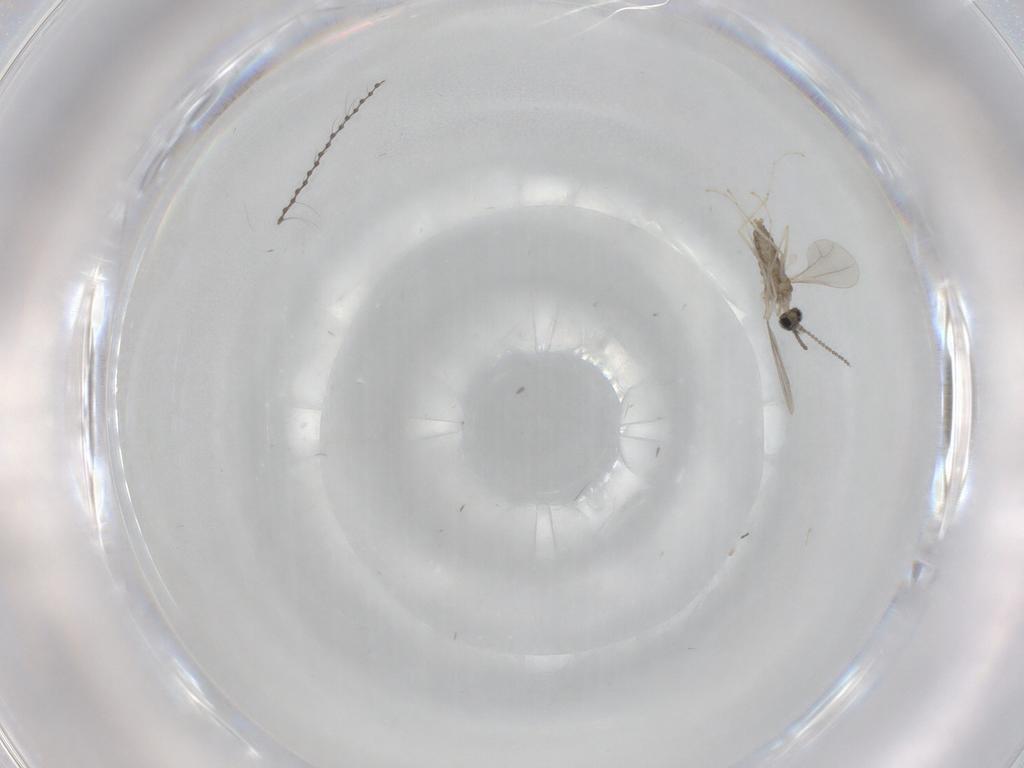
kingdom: Animalia
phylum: Arthropoda
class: Insecta
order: Diptera
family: Cecidomyiidae
